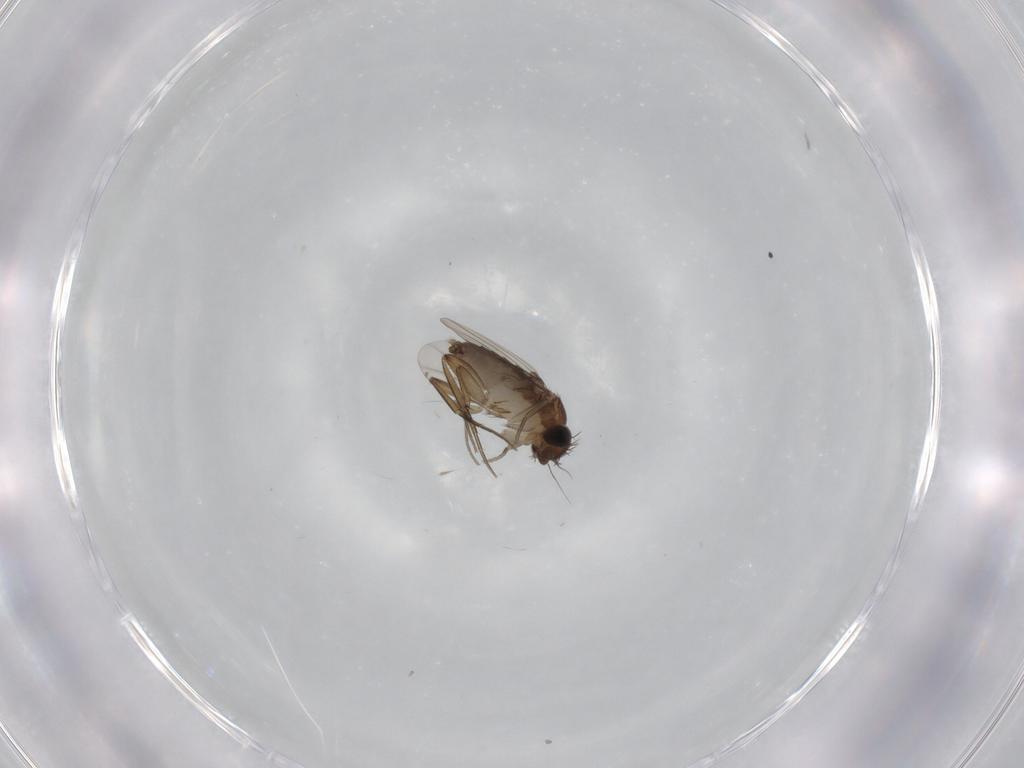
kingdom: Animalia
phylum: Arthropoda
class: Insecta
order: Diptera
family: Phoridae
